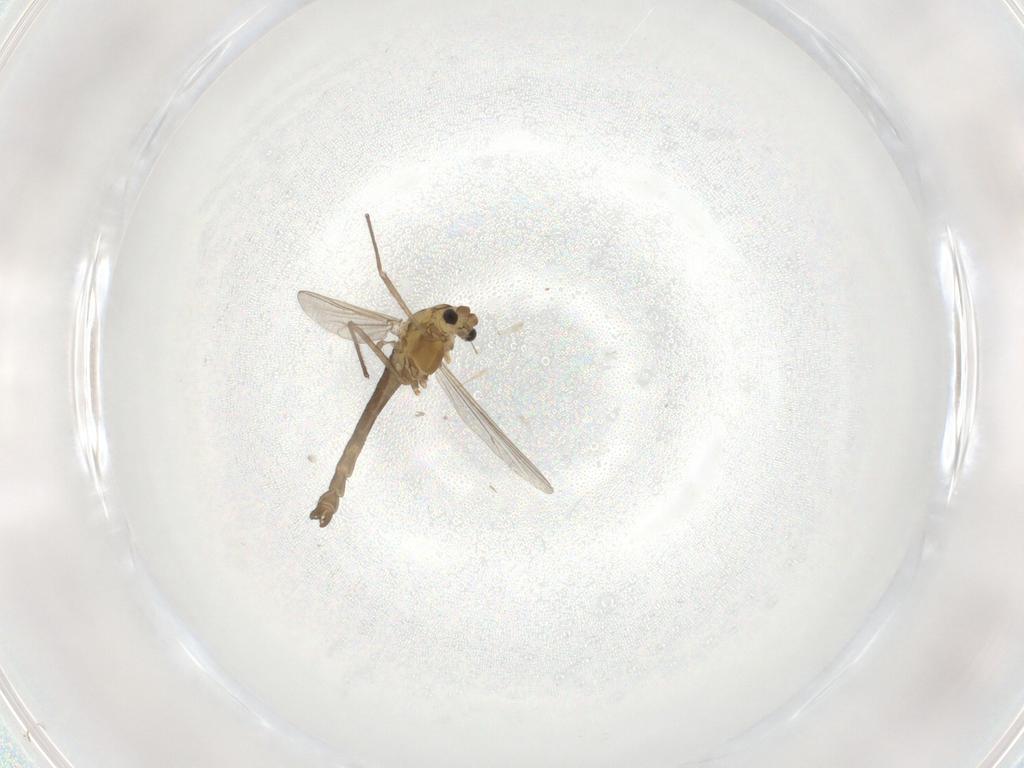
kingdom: Animalia
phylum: Arthropoda
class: Insecta
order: Diptera
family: Chironomidae
